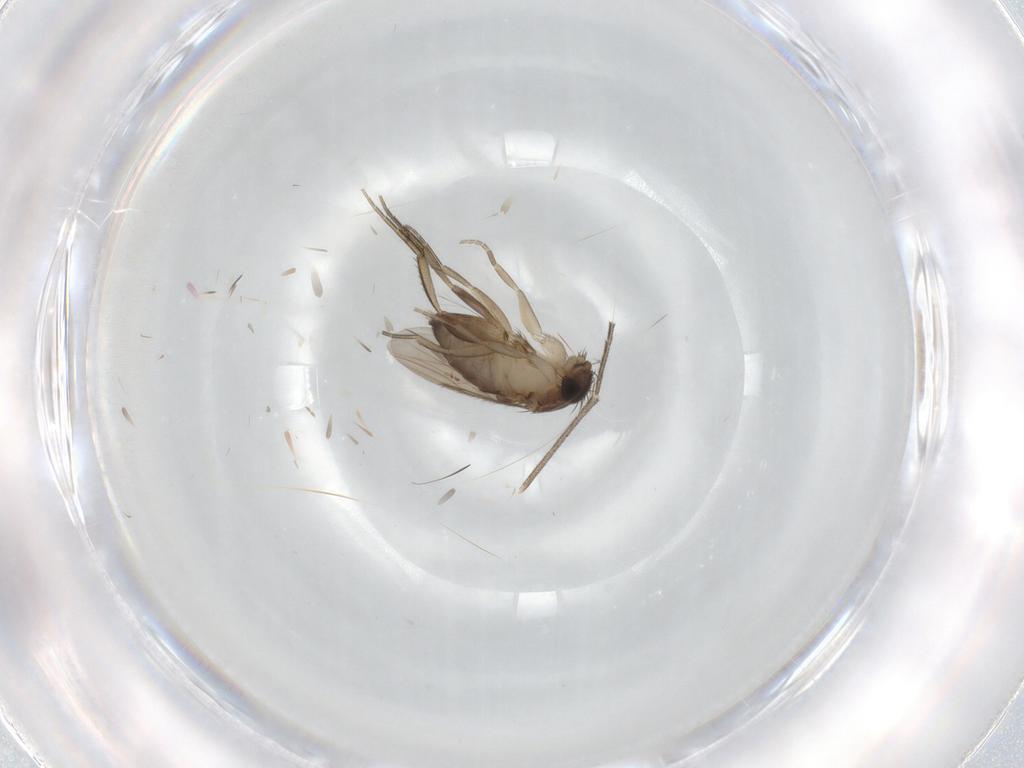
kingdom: Animalia
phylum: Arthropoda
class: Insecta
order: Diptera
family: Phoridae
